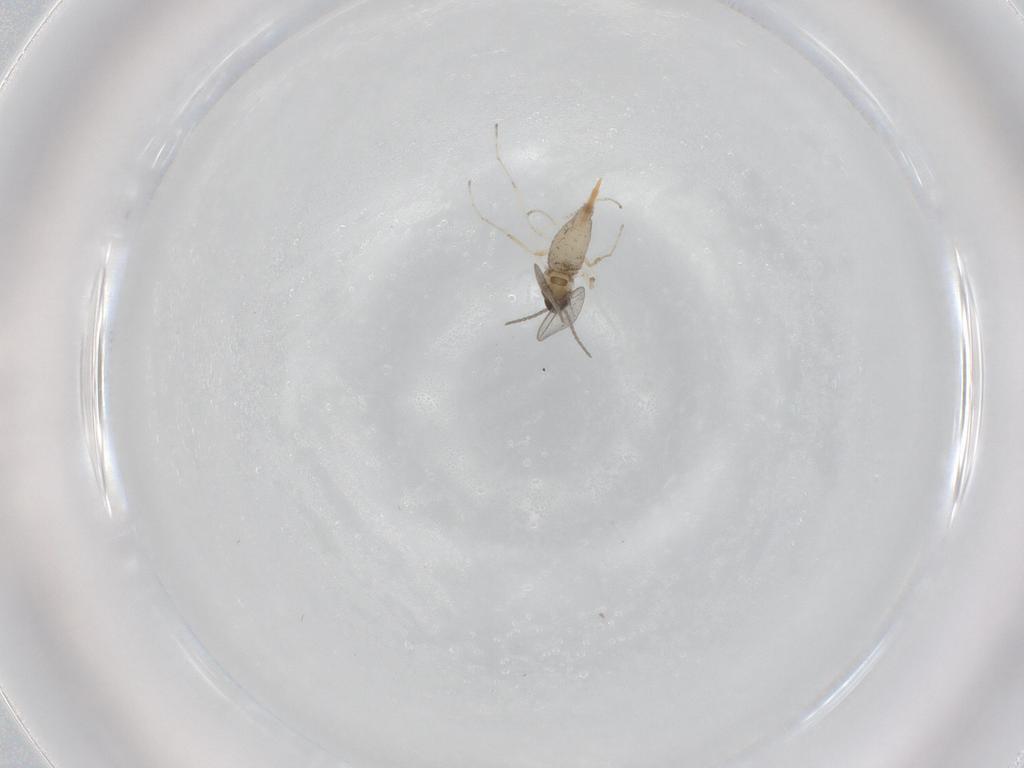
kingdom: Animalia
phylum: Arthropoda
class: Insecta
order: Diptera
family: Cecidomyiidae
